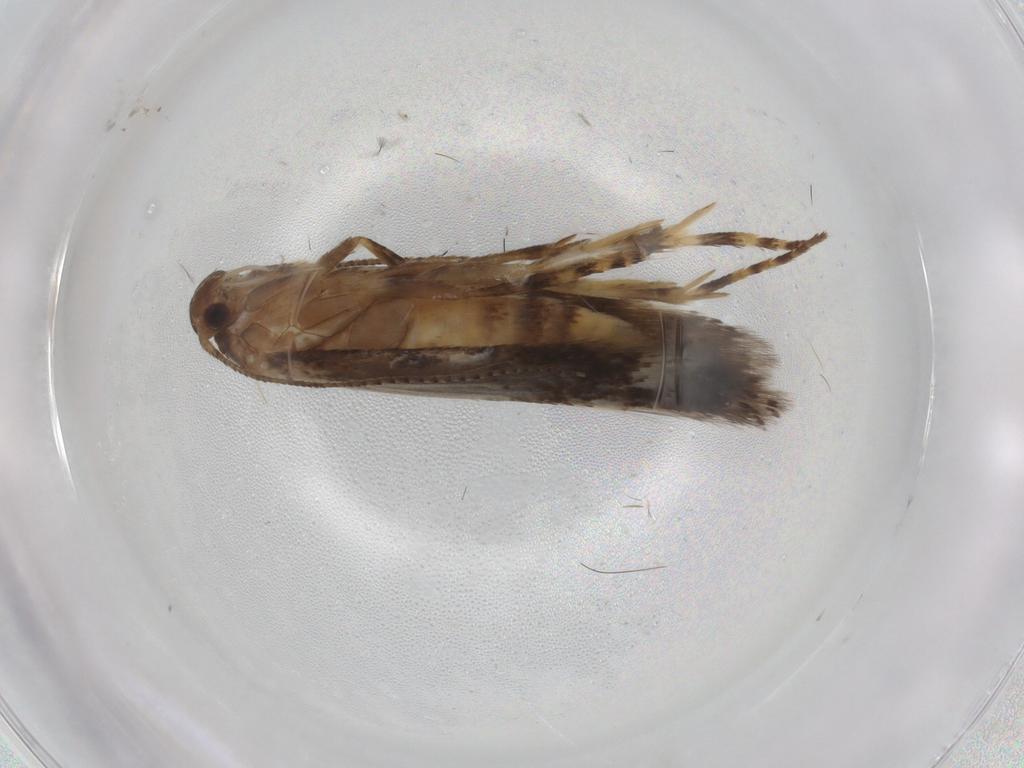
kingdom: Animalia
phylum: Arthropoda
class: Insecta
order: Lepidoptera
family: Elachistidae
